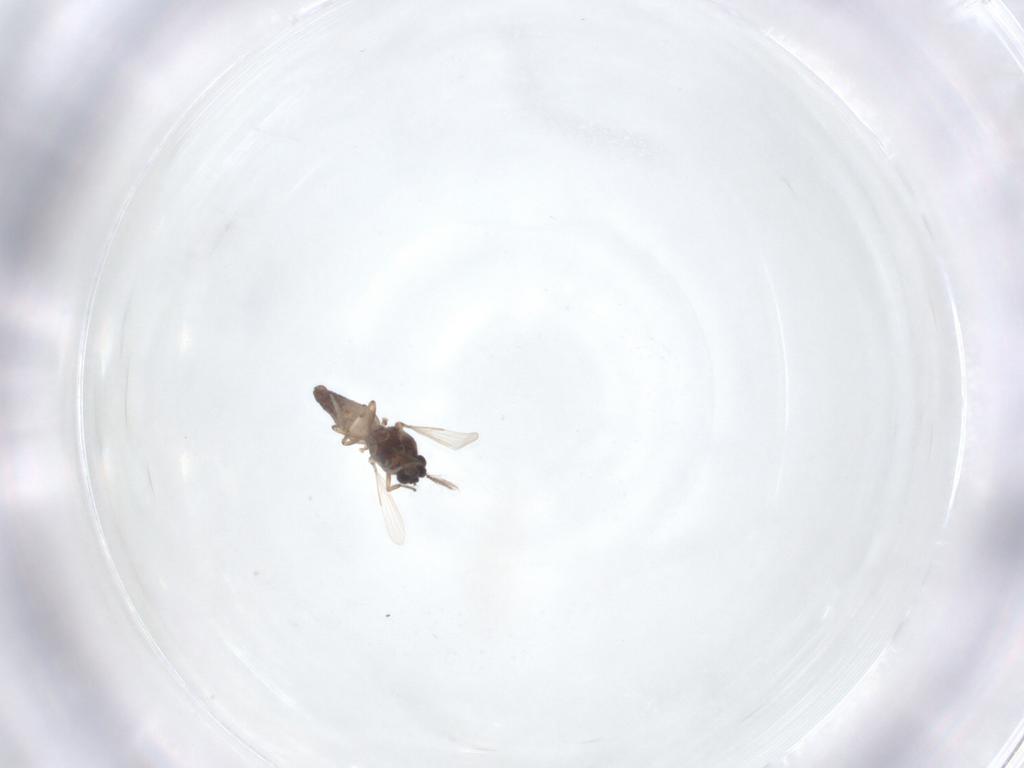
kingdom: Animalia
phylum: Arthropoda
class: Insecta
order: Diptera
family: Ceratopogonidae
